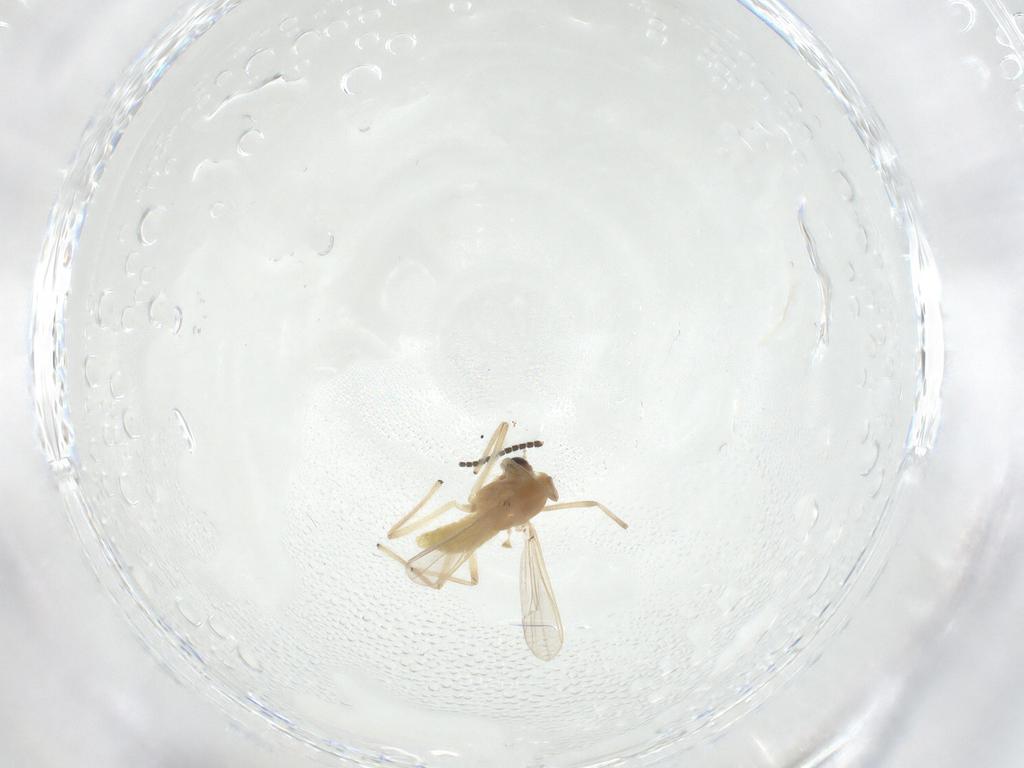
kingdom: Animalia
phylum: Arthropoda
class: Insecta
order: Diptera
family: Chironomidae
